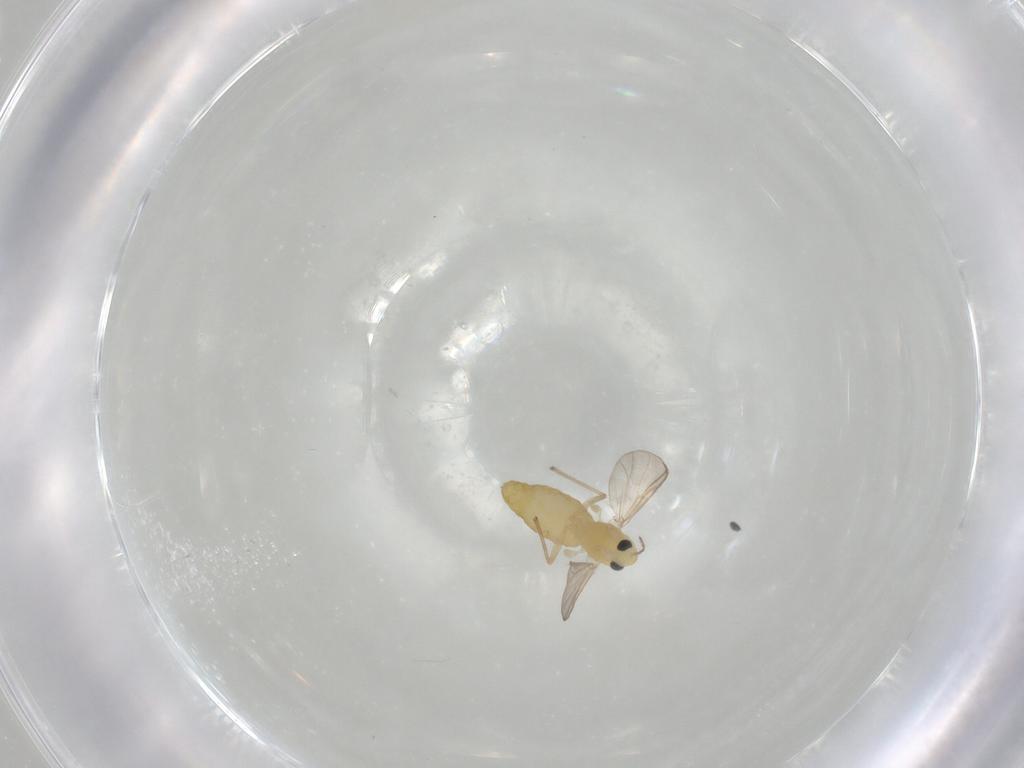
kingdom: Animalia
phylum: Arthropoda
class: Insecta
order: Diptera
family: Chironomidae
